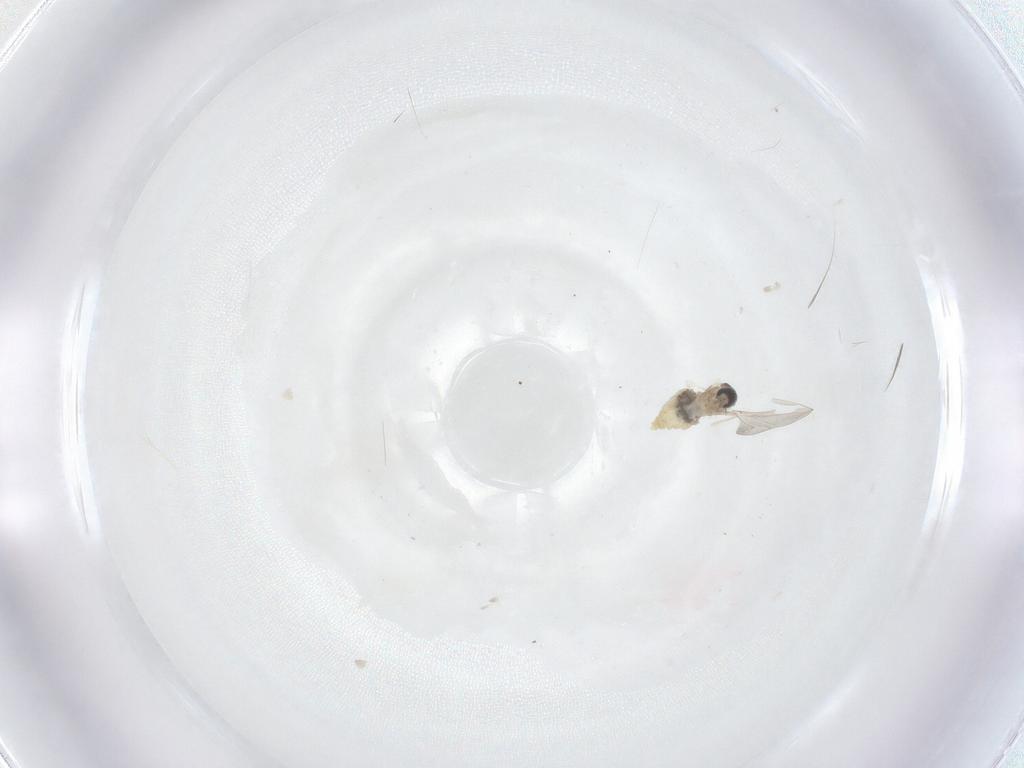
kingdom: Animalia
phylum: Arthropoda
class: Insecta
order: Diptera
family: Cecidomyiidae
